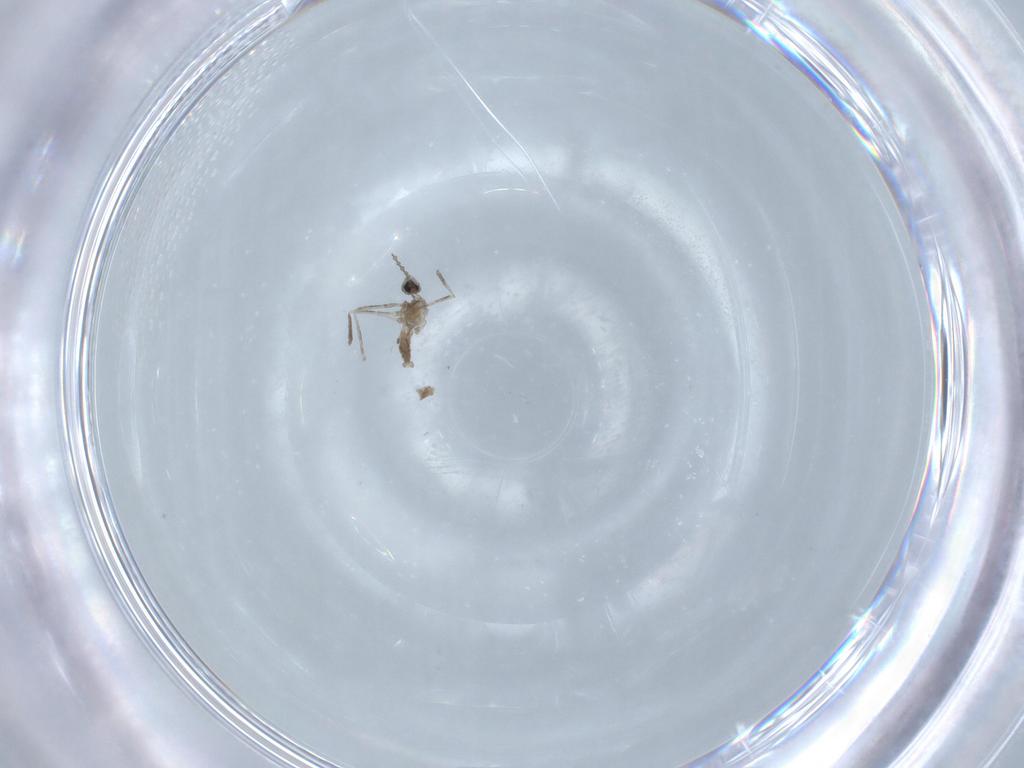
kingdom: Animalia
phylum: Arthropoda
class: Insecta
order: Diptera
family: Cecidomyiidae
